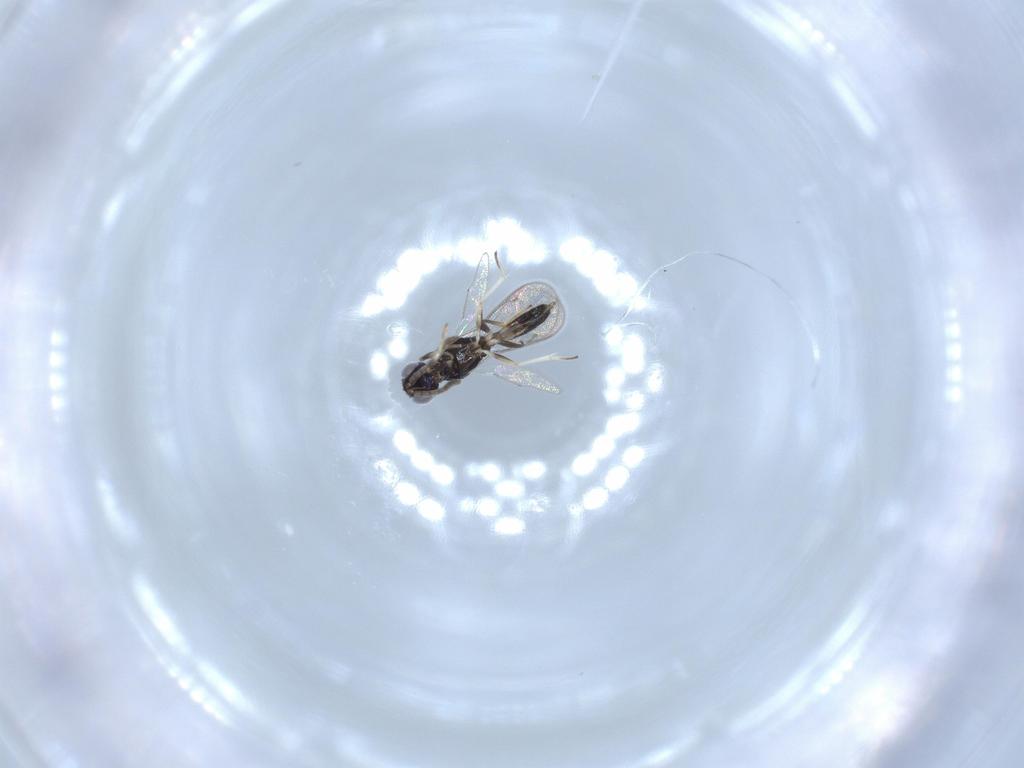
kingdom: Animalia
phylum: Arthropoda
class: Insecta
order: Hymenoptera
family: Eupelmidae
